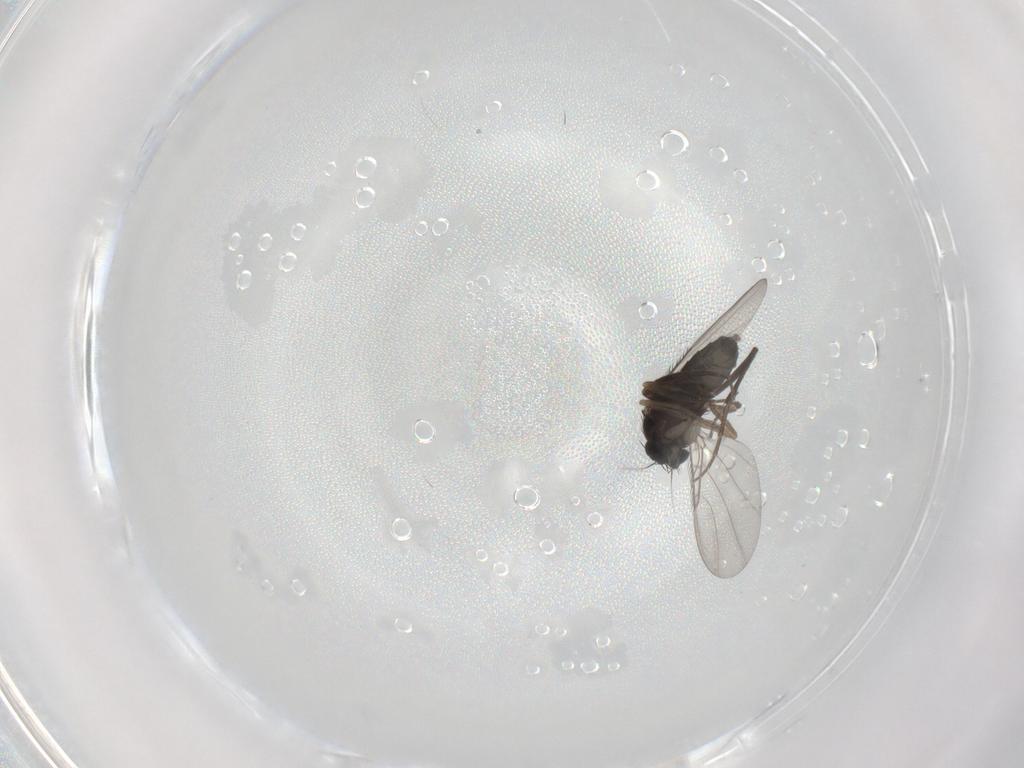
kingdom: Animalia
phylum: Arthropoda
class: Insecta
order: Diptera
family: Phoridae
